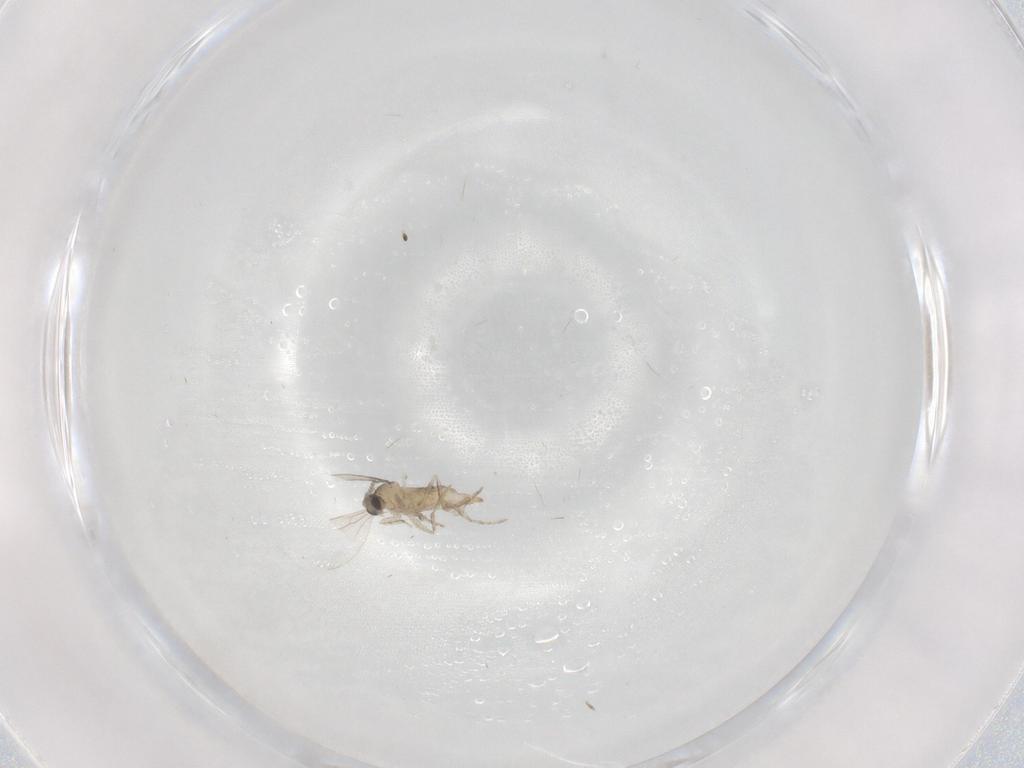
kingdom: Animalia
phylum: Arthropoda
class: Insecta
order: Diptera
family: Cecidomyiidae
